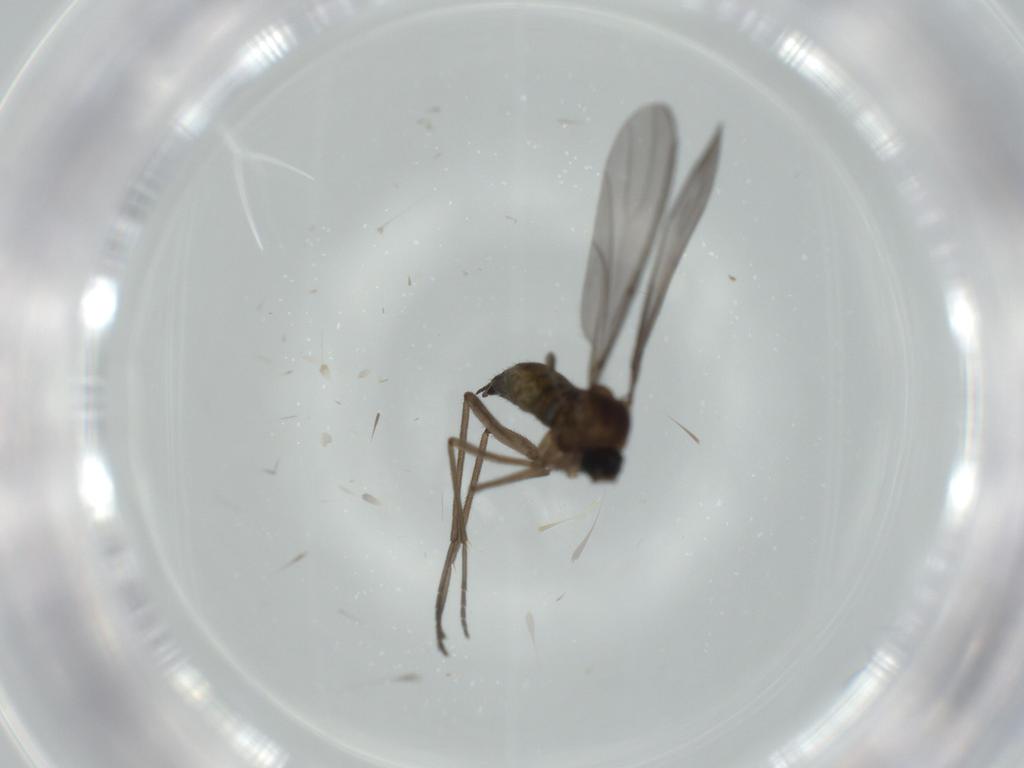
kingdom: Animalia
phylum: Arthropoda
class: Insecta
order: Diptera
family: Sciaridae
